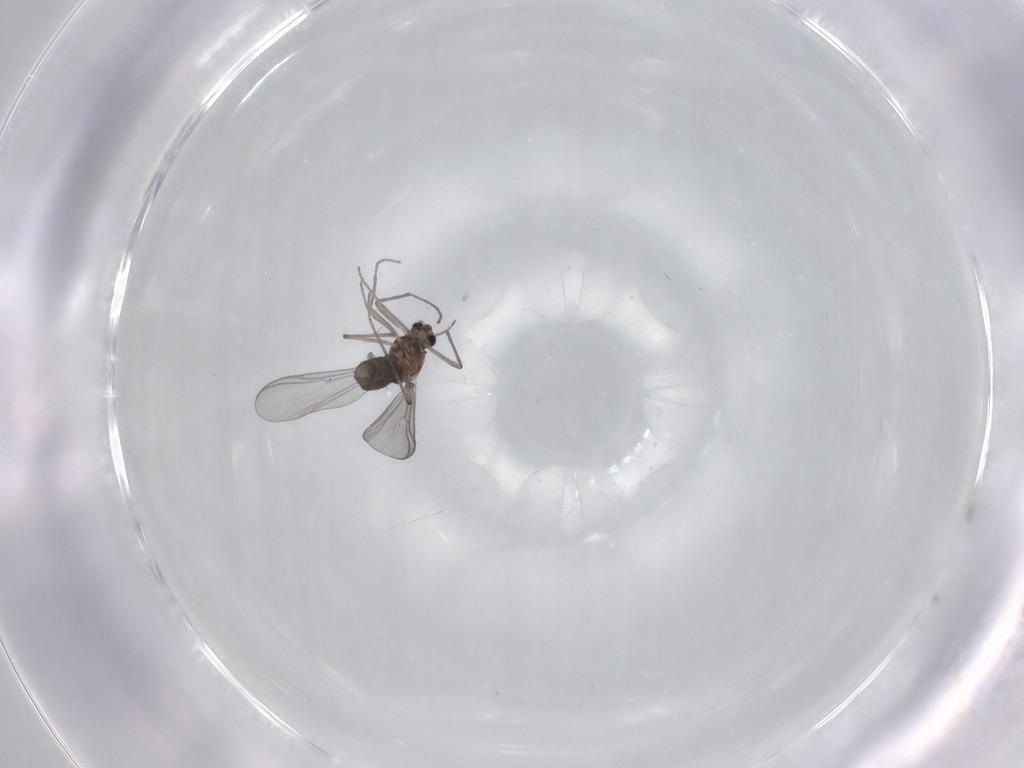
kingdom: Animalia
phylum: Arthropoda
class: Insecta
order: Diptera
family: Chironomidae
